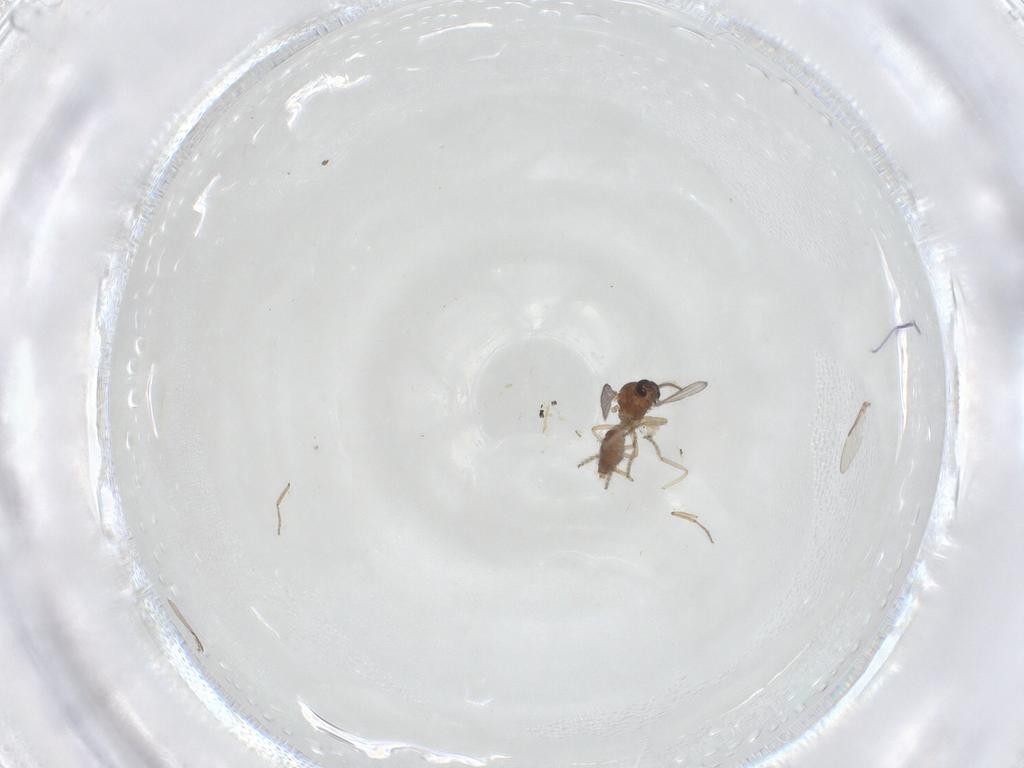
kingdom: Animalia
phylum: Arthropoda
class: Insecta
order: Diptera
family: Ceratopogonidae
